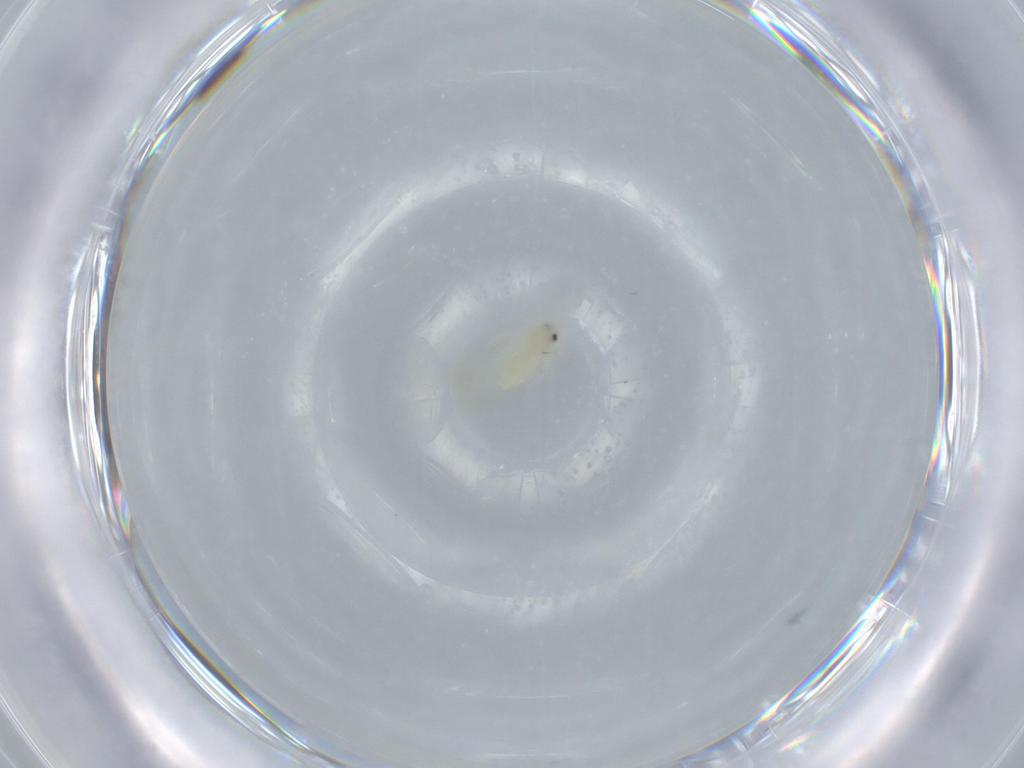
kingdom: Animalia
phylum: Arthropoda
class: Insecta
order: Hemiptera
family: Aleyrodidae
